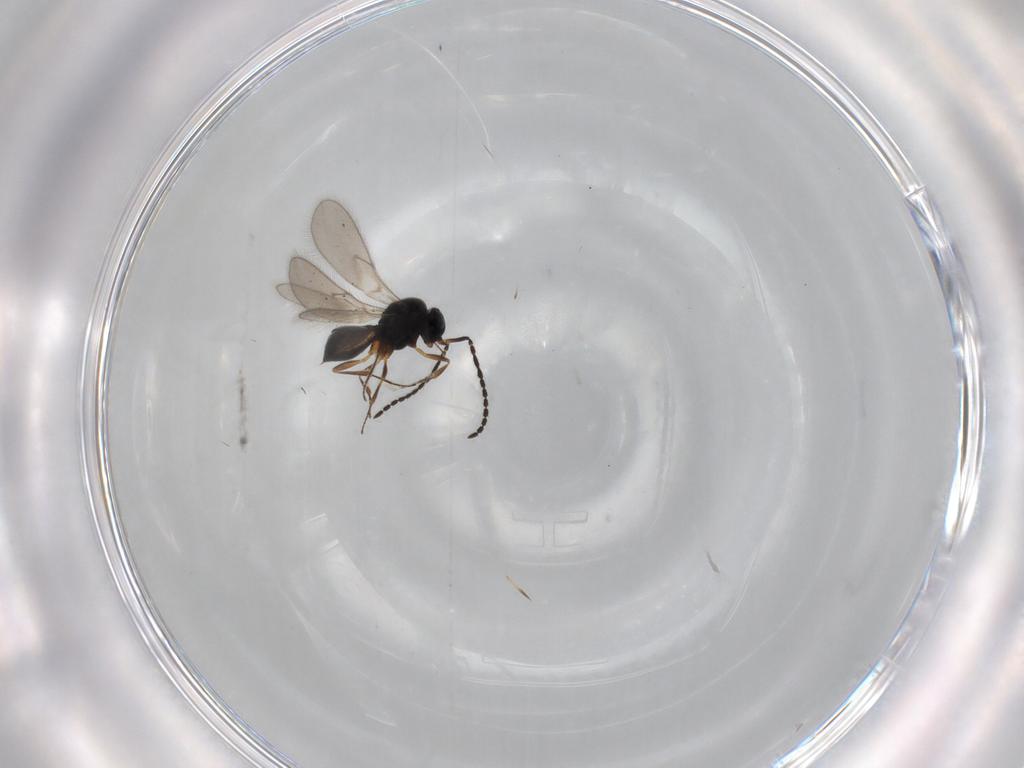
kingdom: Animalia
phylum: Arthropoda
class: Insecta
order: Hymenoptera
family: Scelionidae
